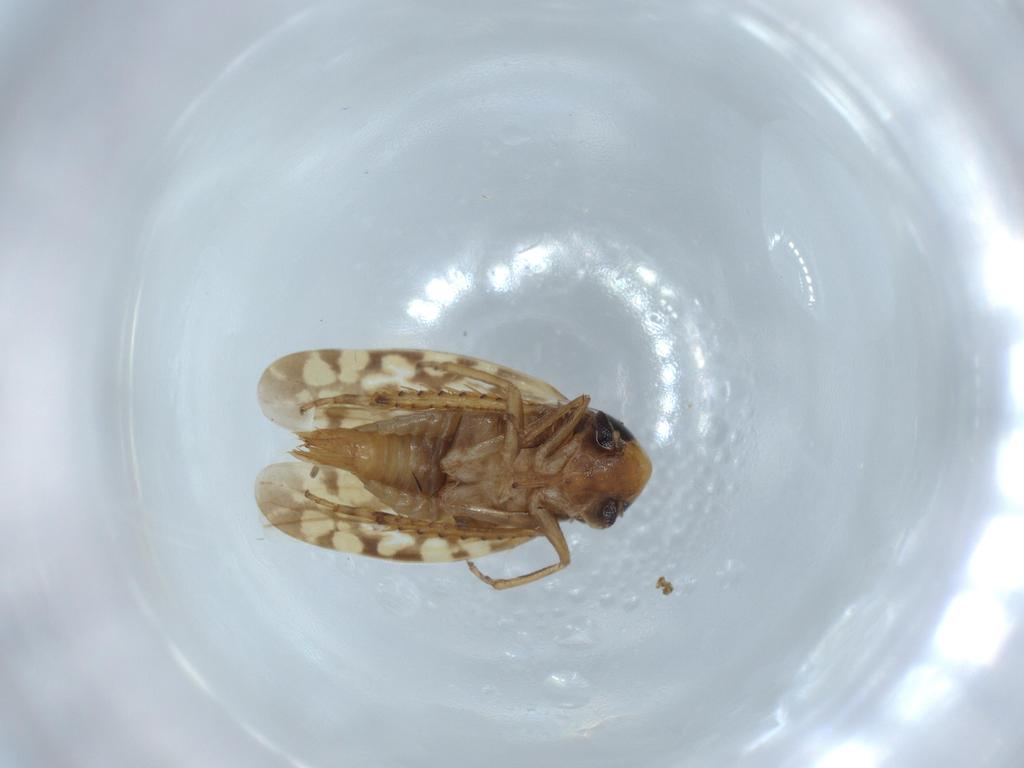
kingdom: Animalia
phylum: Arthropoda
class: Insecta
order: Hemiptera
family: Cicadellidae
